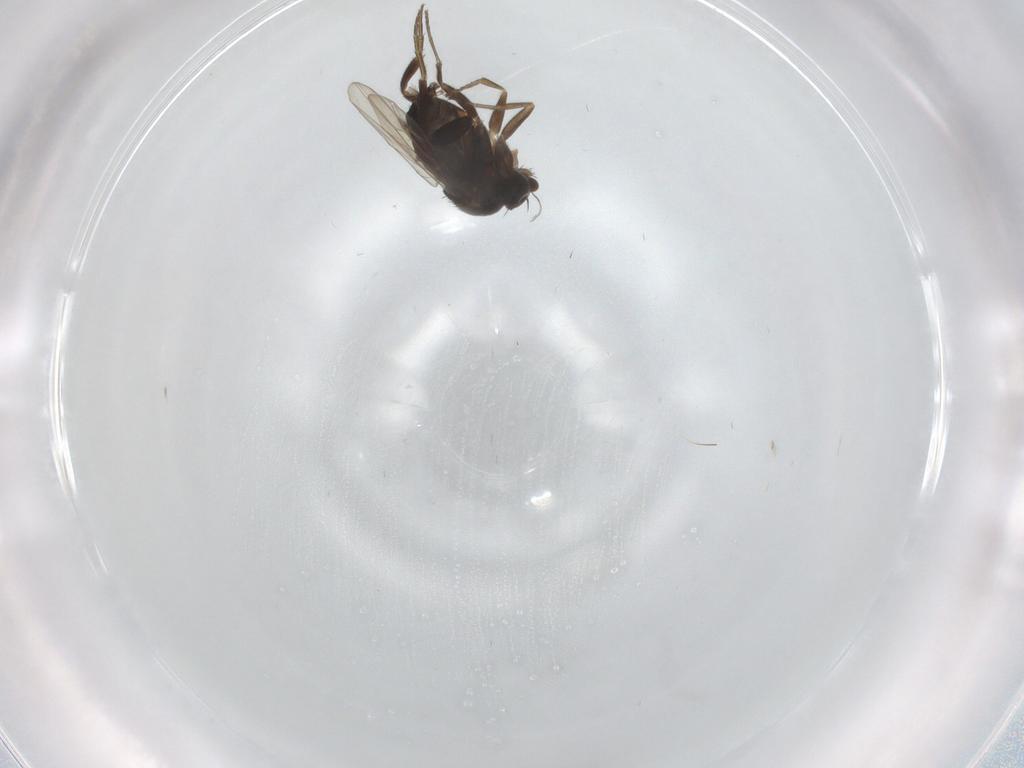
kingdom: Animalia
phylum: Arthropoda
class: Insecta
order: Diptera
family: Phoridae
